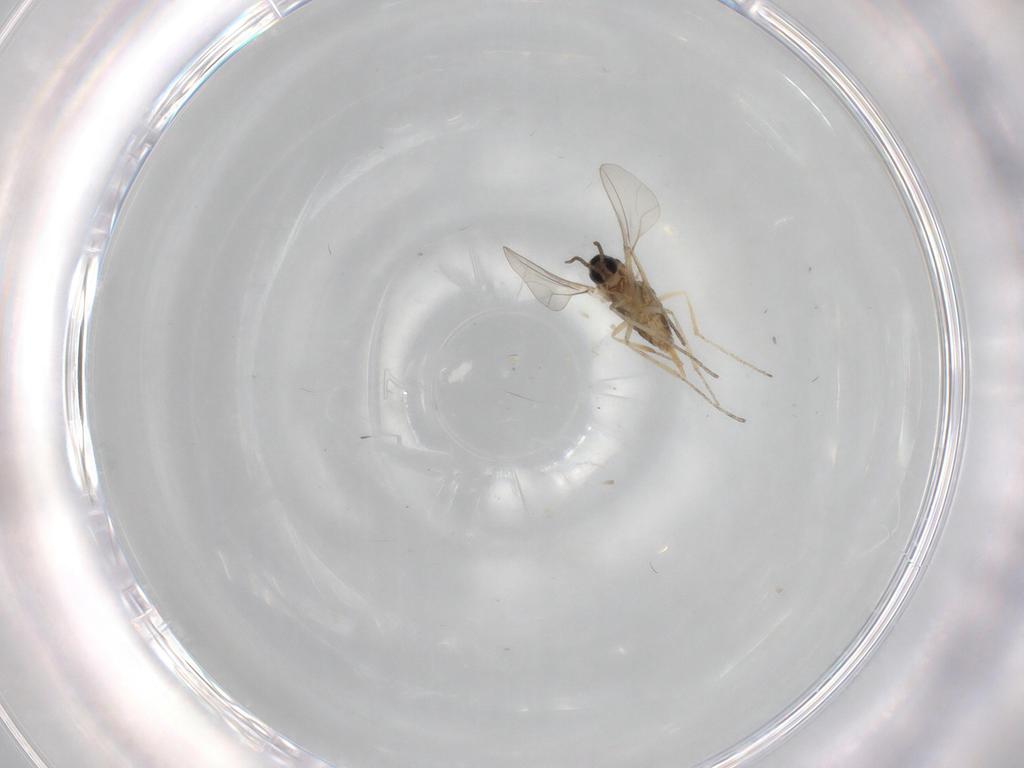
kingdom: Animalia
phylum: Arthropoda
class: Insecta
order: Diptera
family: Cecidomyiidae
